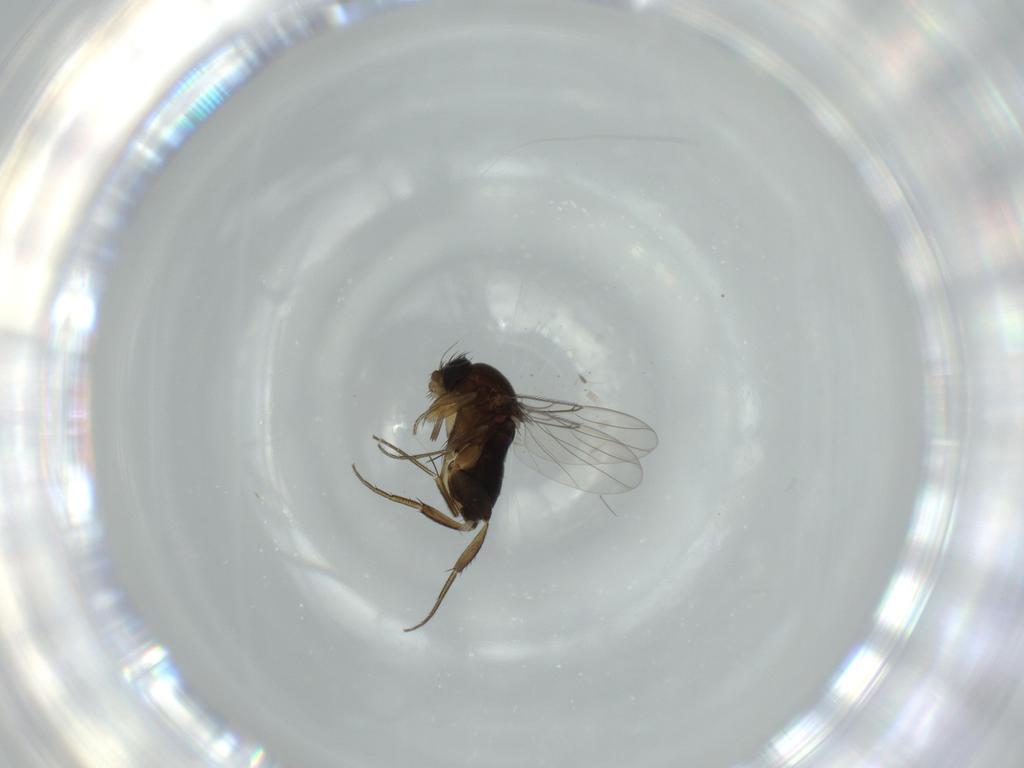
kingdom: Animalia
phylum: Arthropoda
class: Insecta
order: Diptera
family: Phoridae
